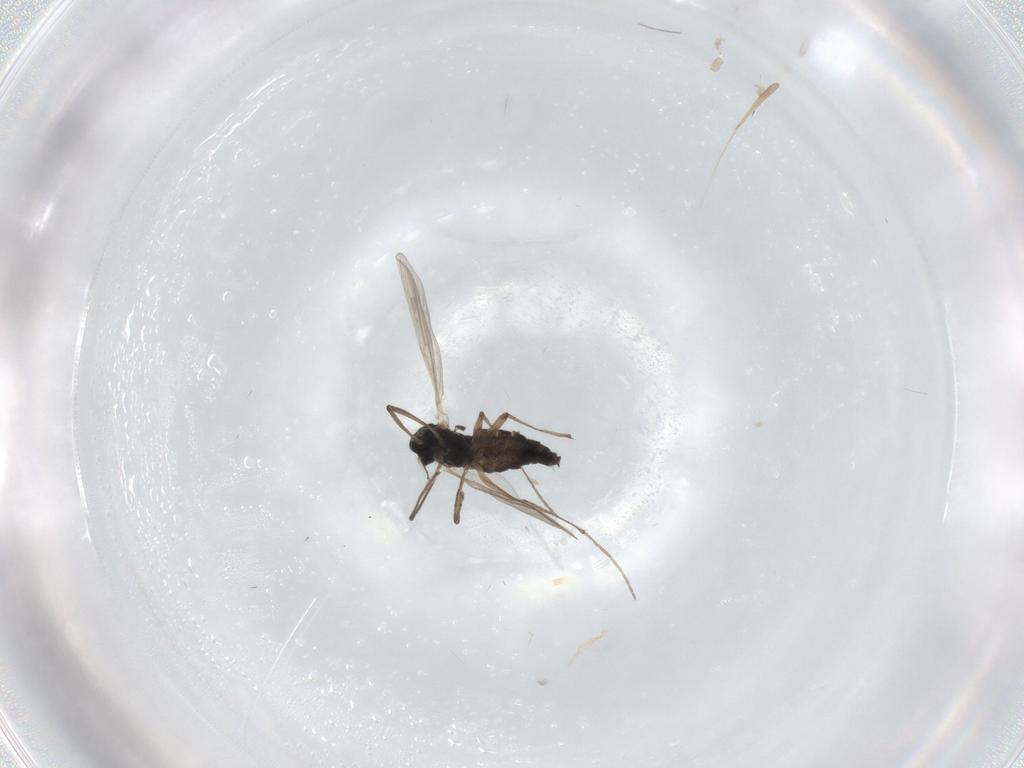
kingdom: Animalia
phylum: Arthropoda
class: Insecta
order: Diptera
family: Chironomidae
